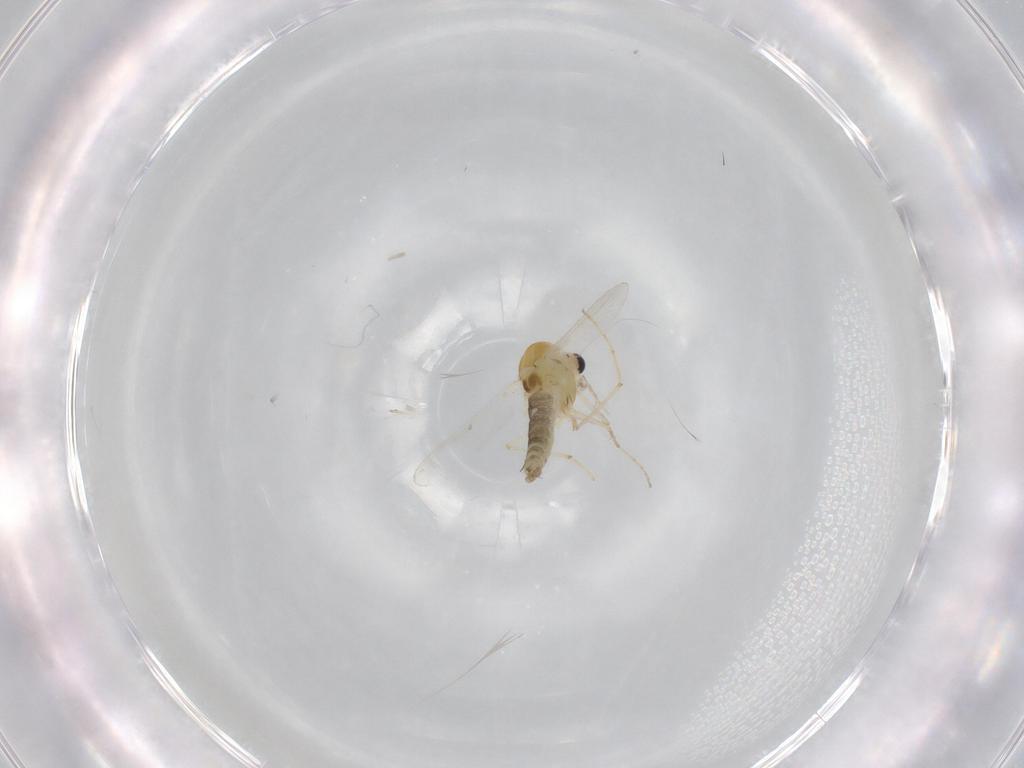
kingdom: Animalia
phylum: Arthropoda
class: Insecta
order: Diptera
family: Chironomidae
